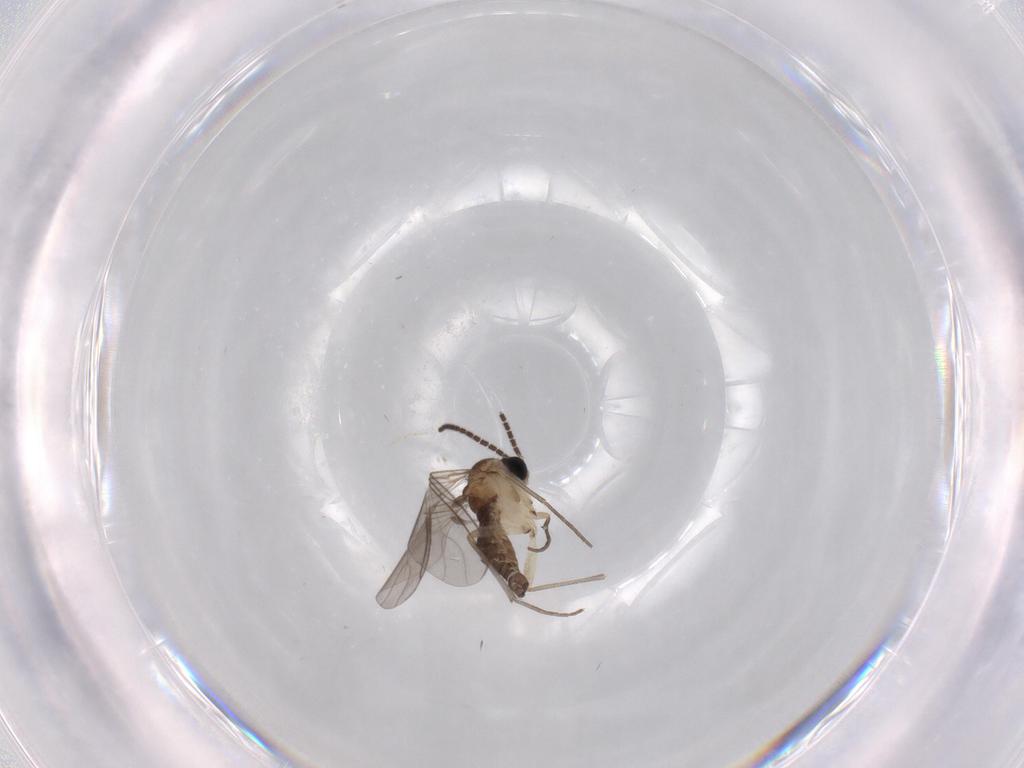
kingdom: Animalia
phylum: Arthropoda
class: Insecta
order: Diptera
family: Sciaridae
